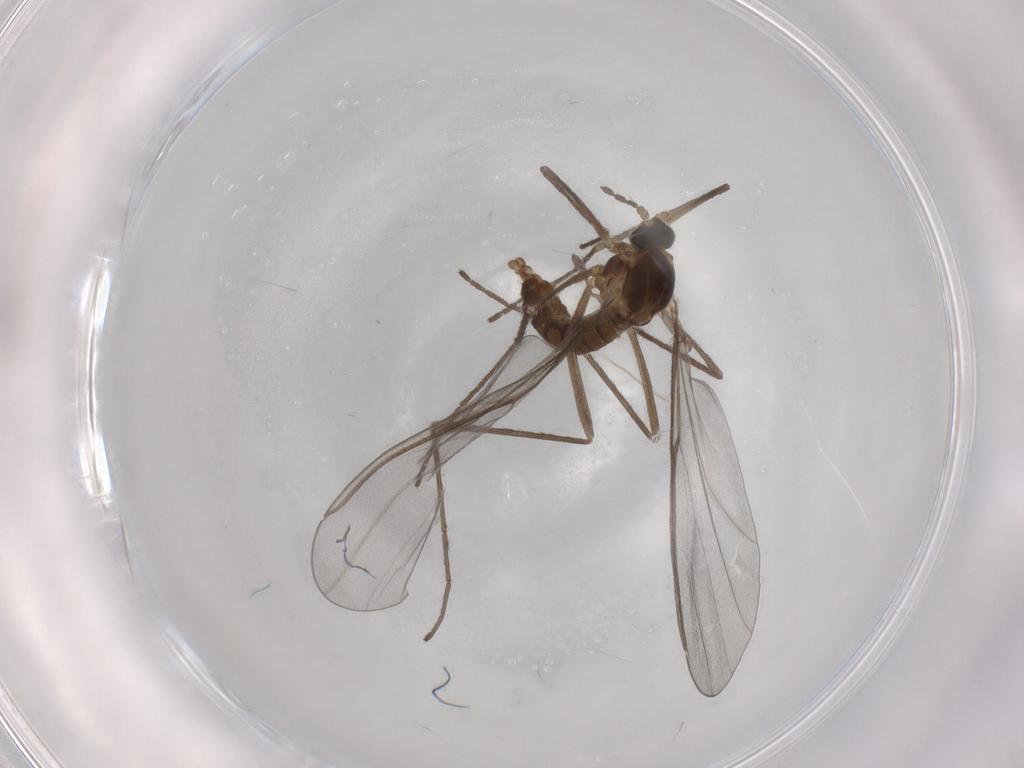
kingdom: Animalia
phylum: Arthropoda
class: Insecta
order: Diptera
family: Cecidomyiidae
